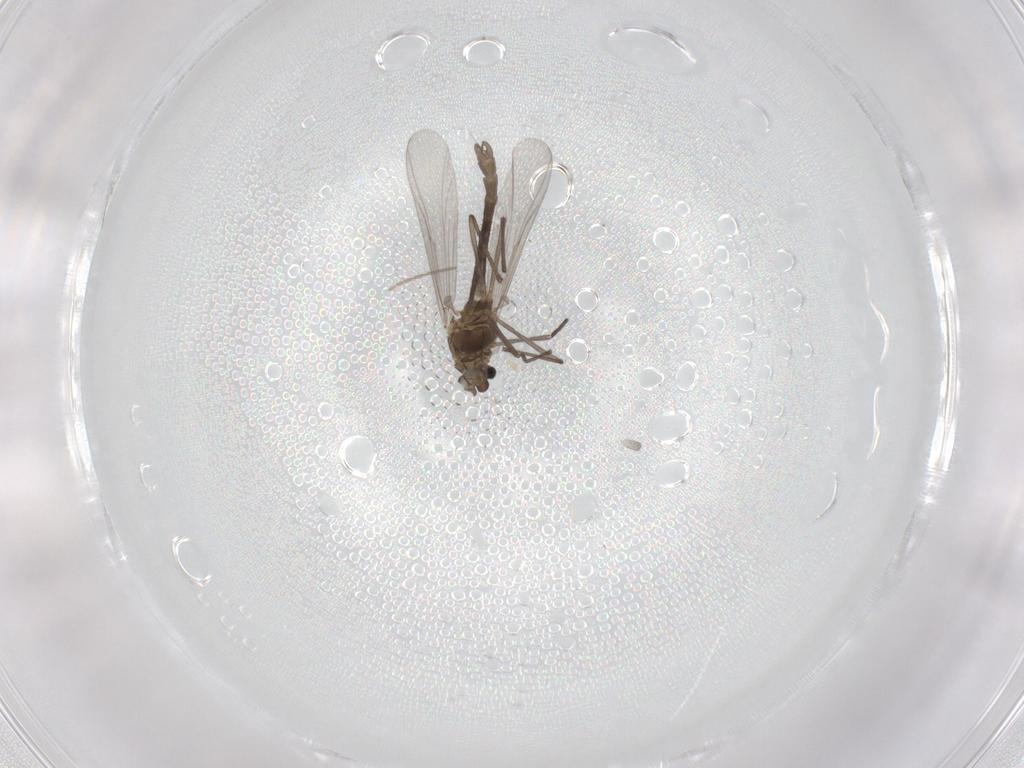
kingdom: Animalia
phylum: Arthropoda
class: Insecta
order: Diptera
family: Chironomidae
